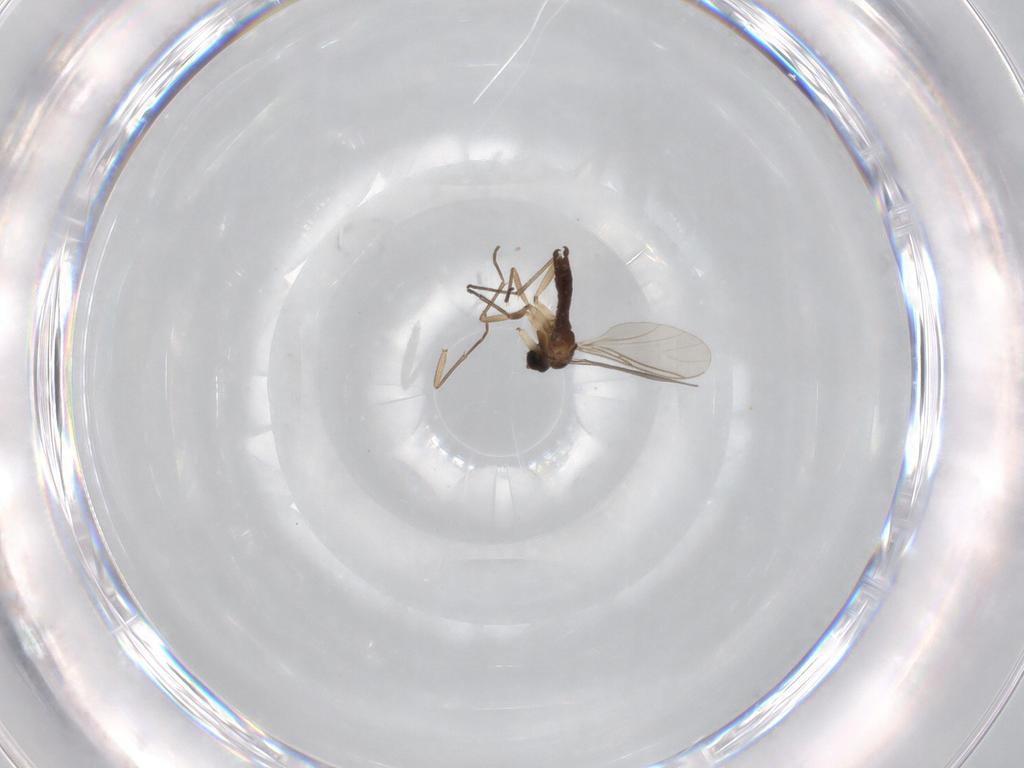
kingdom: Animalia
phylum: Arthropoda
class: Insecta
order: Diptera
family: Sciaridae
